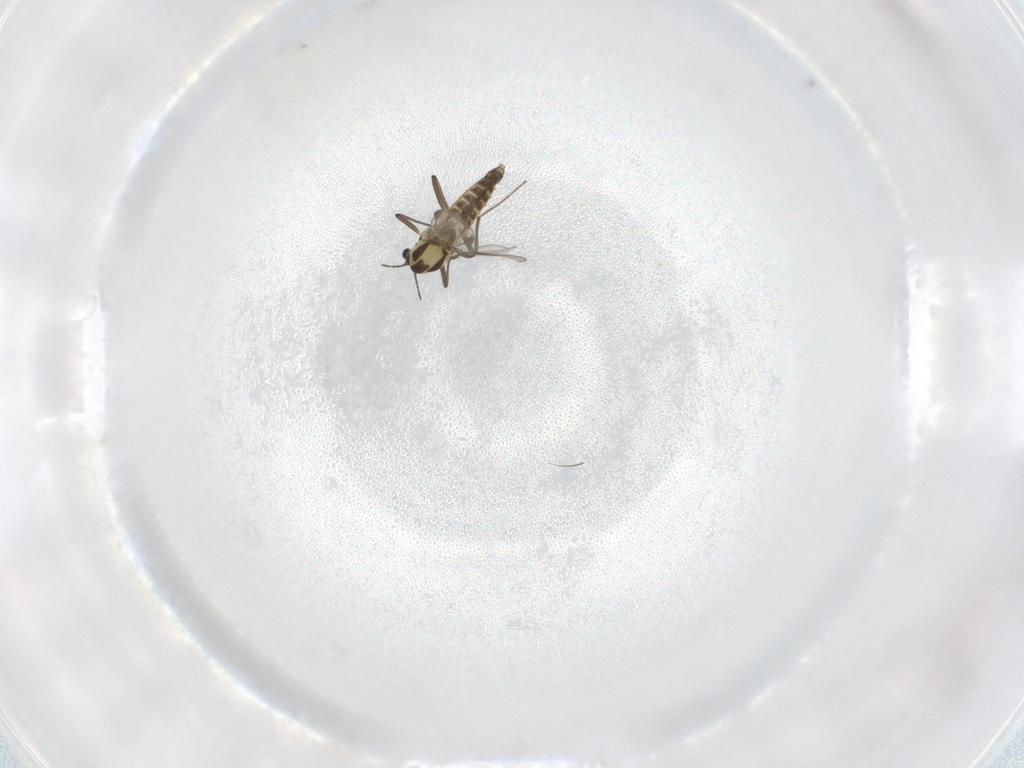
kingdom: Animalia
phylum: Arthropoda
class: Insecta
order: Diptera
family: Chironomidae
